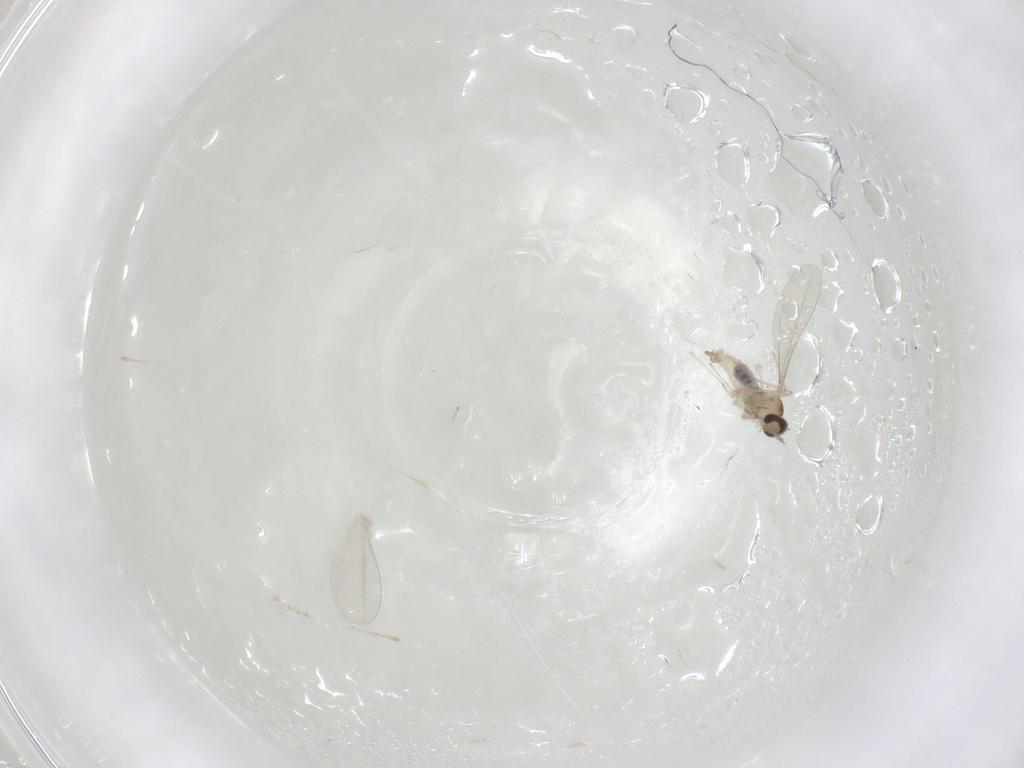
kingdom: Animalia
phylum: Arthropoda
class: Insecta
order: Diptera
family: Cecidomyiidae
